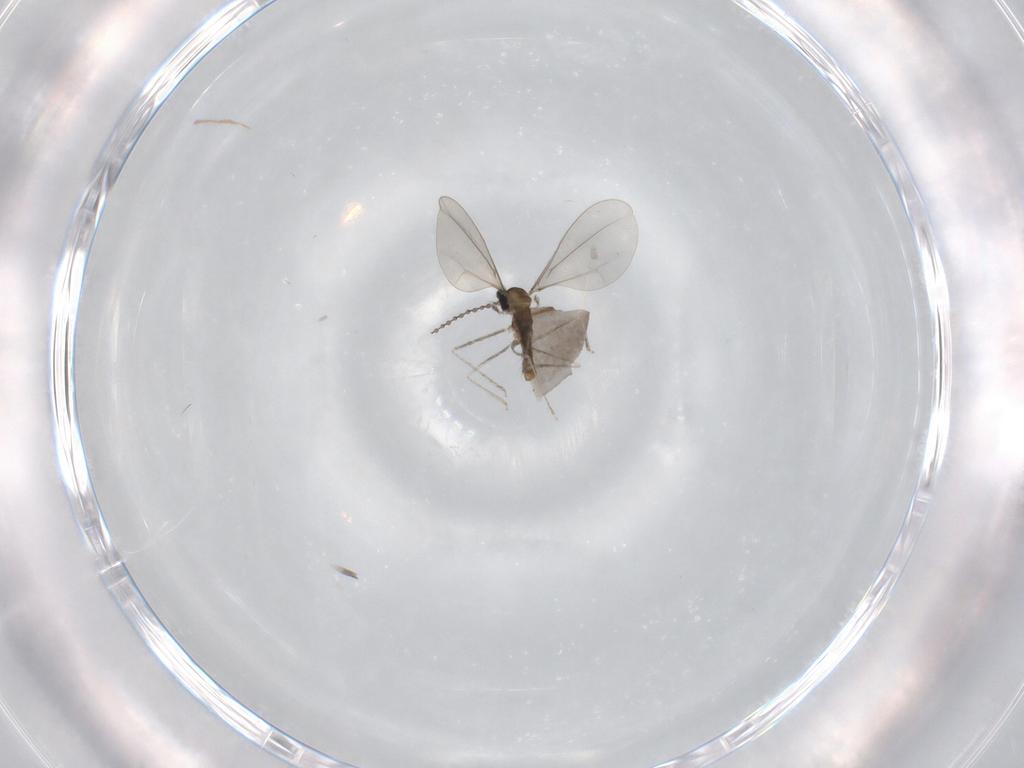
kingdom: Animalia
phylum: Arthropoda
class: Insecta
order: Diptera
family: Cecidomyiidae
